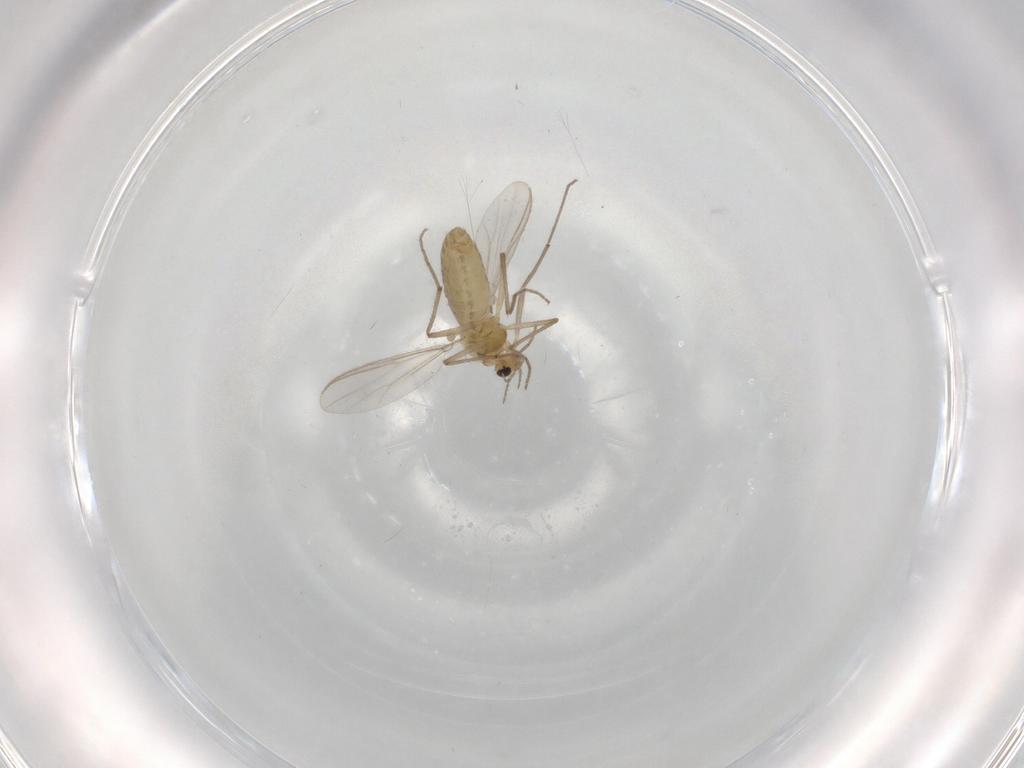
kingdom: Animalia
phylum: Arthropoda
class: Insecta
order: Diptera
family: Chironomidae
